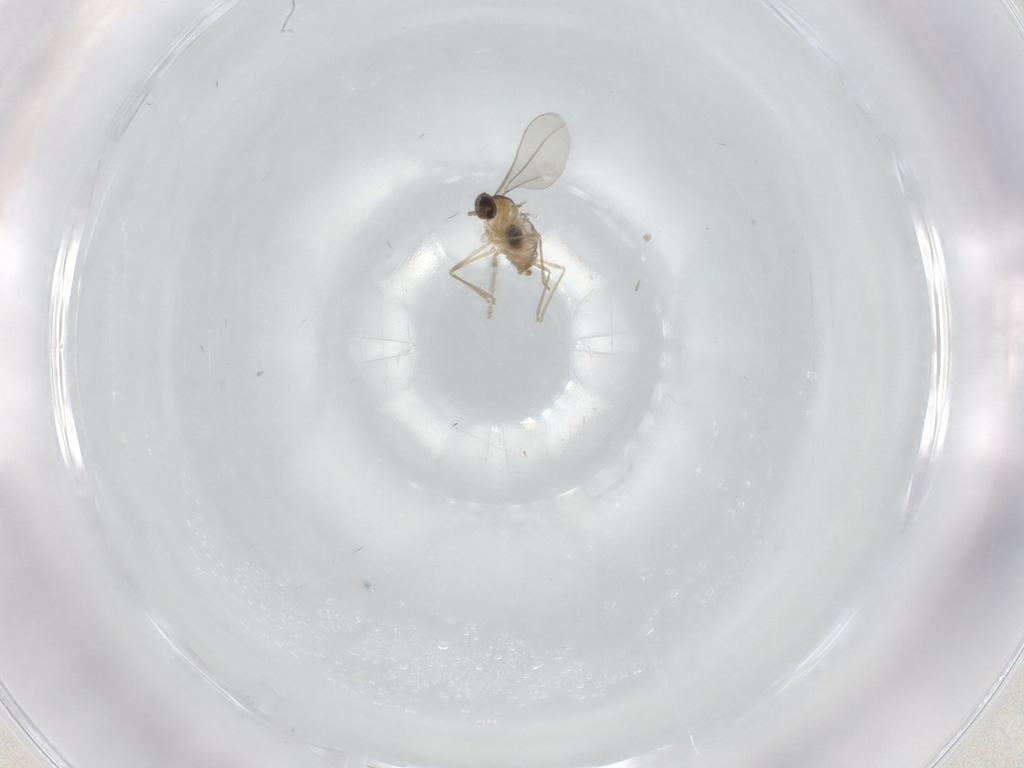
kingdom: Animalia
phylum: Arthropoda
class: Insecta
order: Diptera
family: Cecidomyiidae
